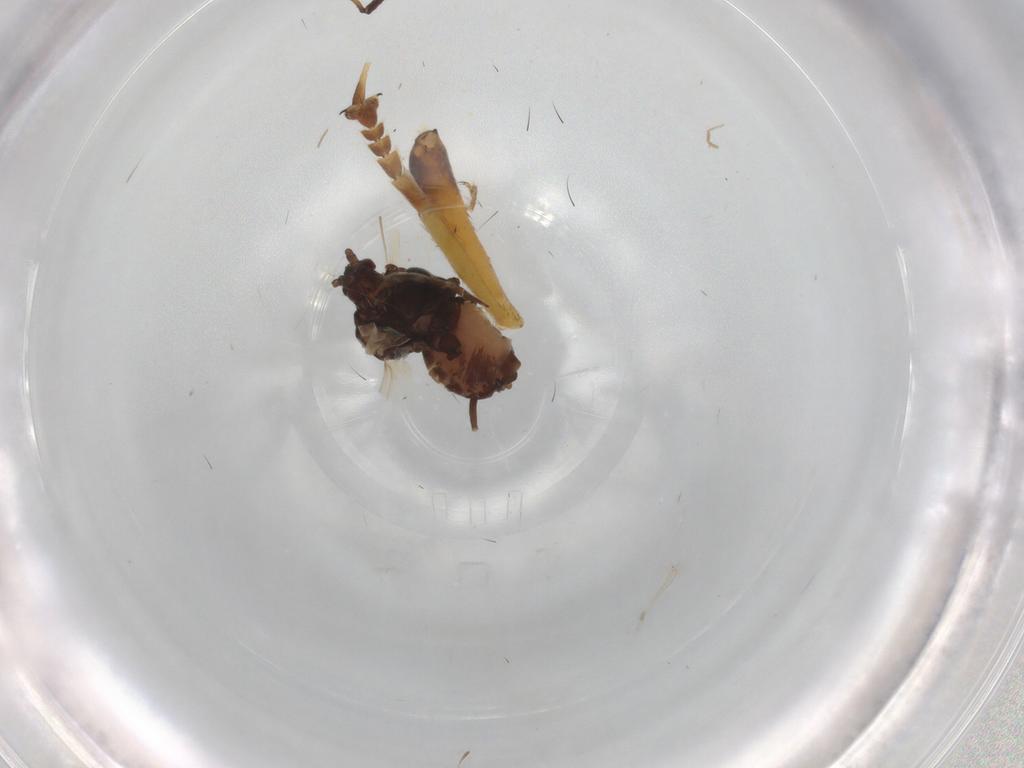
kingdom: Animalia
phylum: Arthropoda
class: Insecta
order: Hemiptera
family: Aphididae
